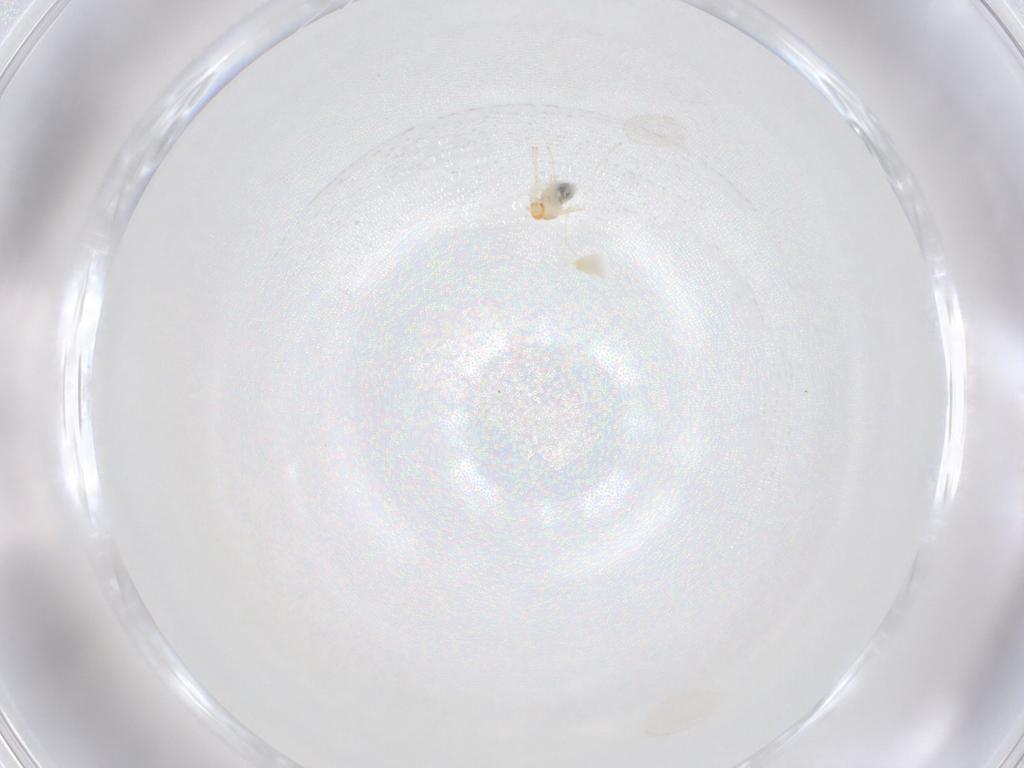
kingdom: Animalia
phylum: Arthropoda
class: Insecta
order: Diptera
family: Cecidomyiidae
